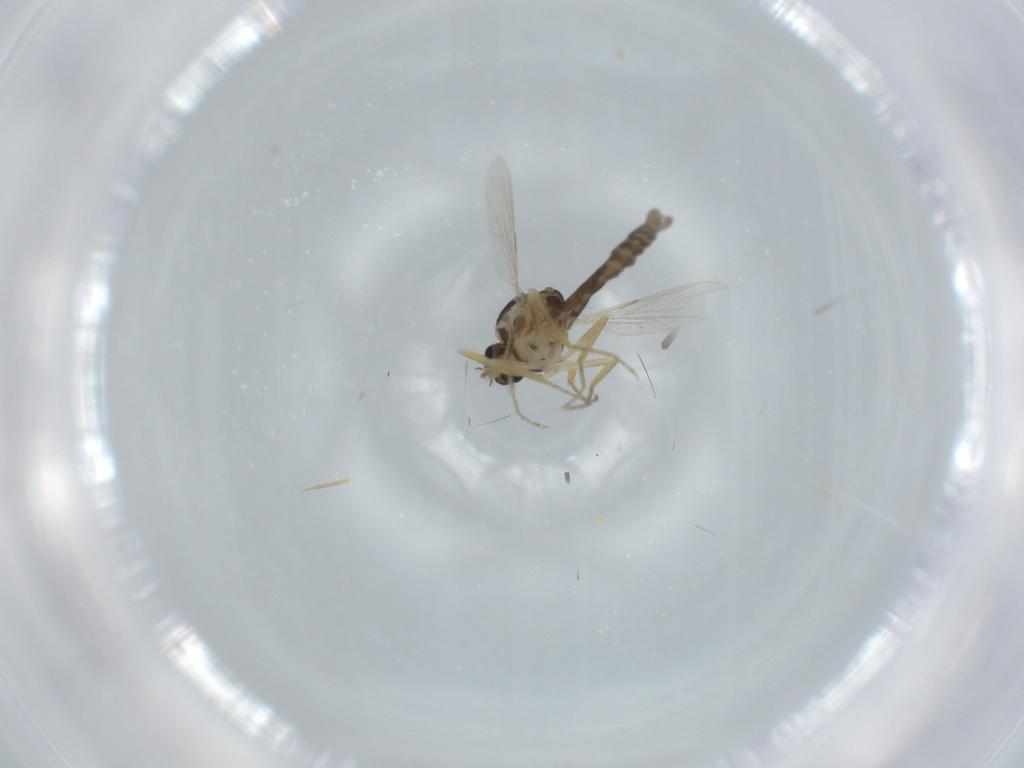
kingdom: Animalia
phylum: Arthropoda
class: Insecta
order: Diptera
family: Ceratopogonidae
